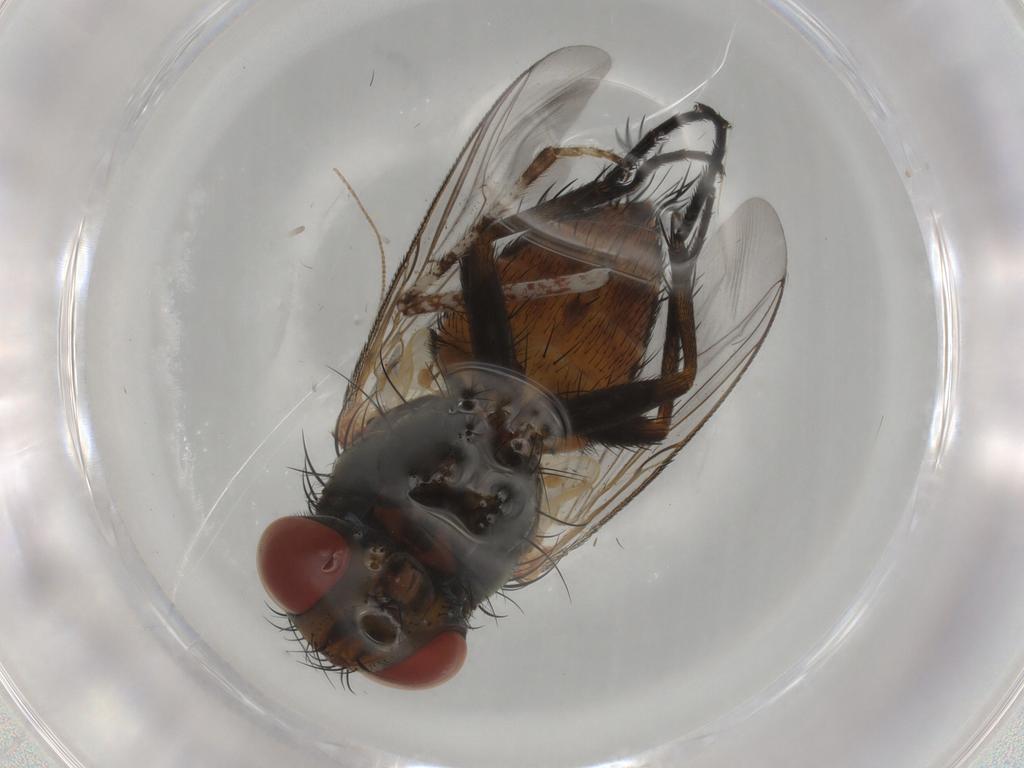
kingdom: Animalia
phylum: Arthropoda
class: Insecta
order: Diptera
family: Sarcophagidae
